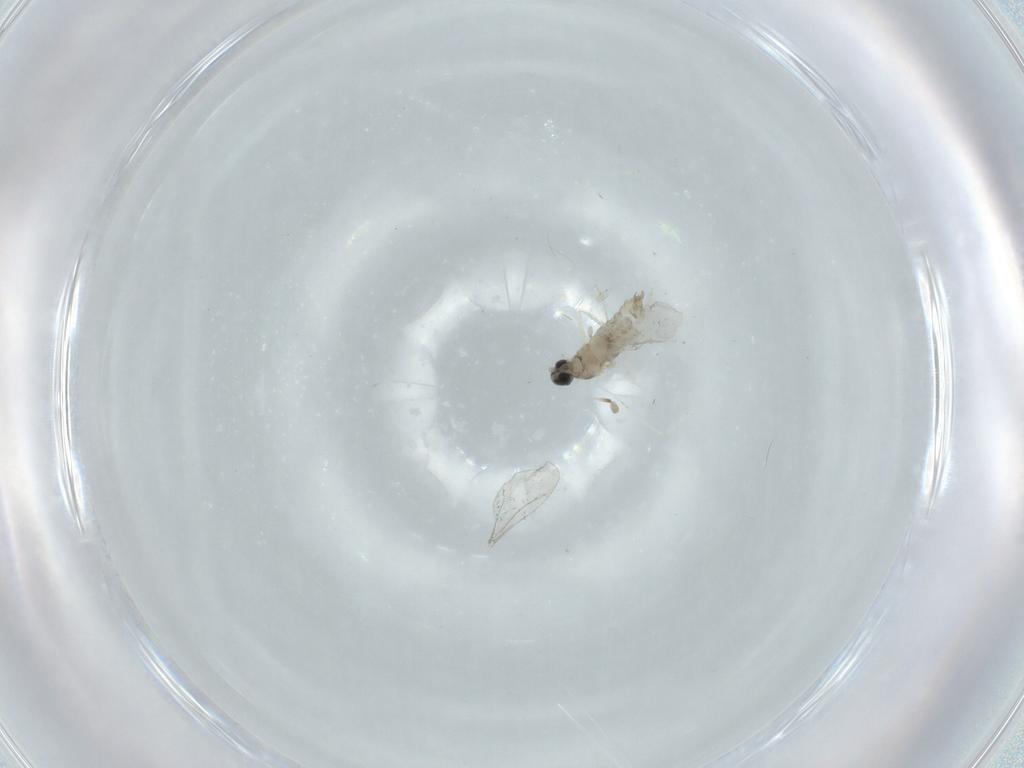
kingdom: Animalia
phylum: Arthropoda
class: Insecta
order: Diptera
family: Cecidomyiidae
